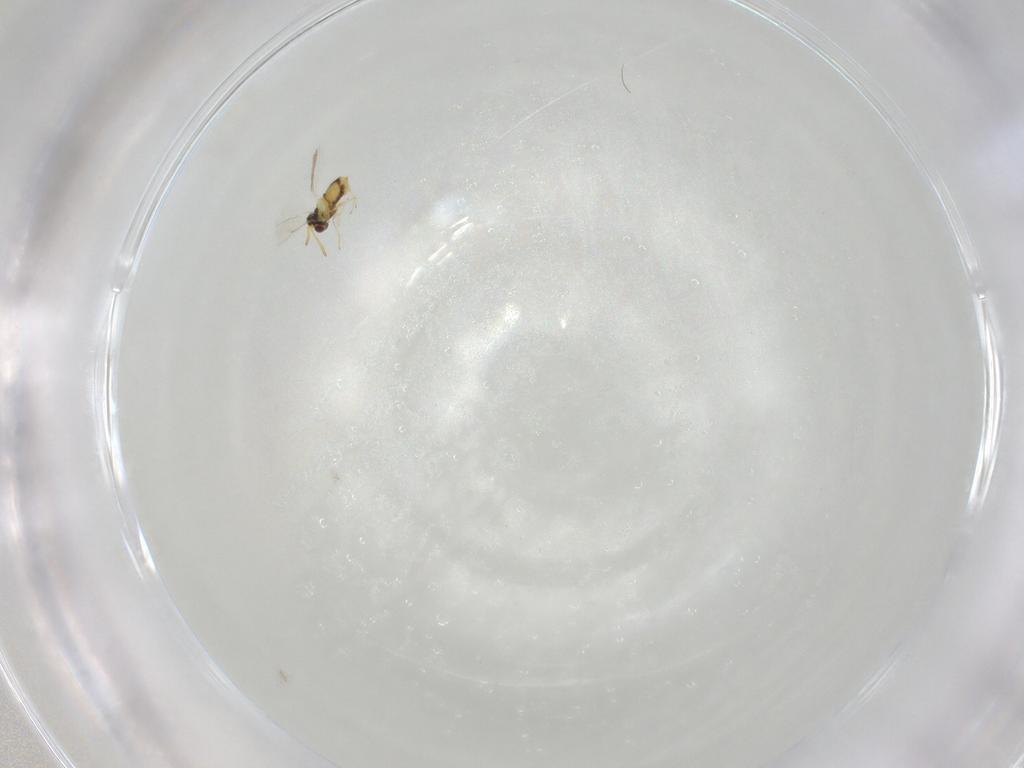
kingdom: Animalia
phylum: Arthropoda
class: Insecta
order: Hymenoptera
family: Aphelinidae
